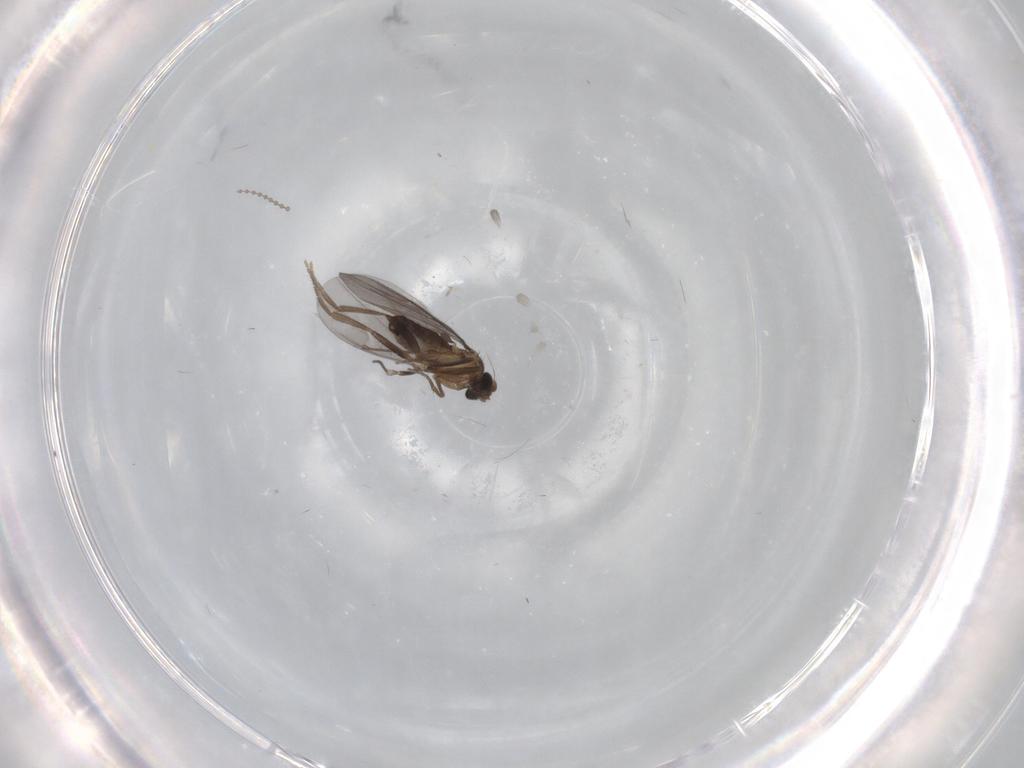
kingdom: Animalia
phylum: Arthropoda
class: Insecta
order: Diptera
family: Phoridae
